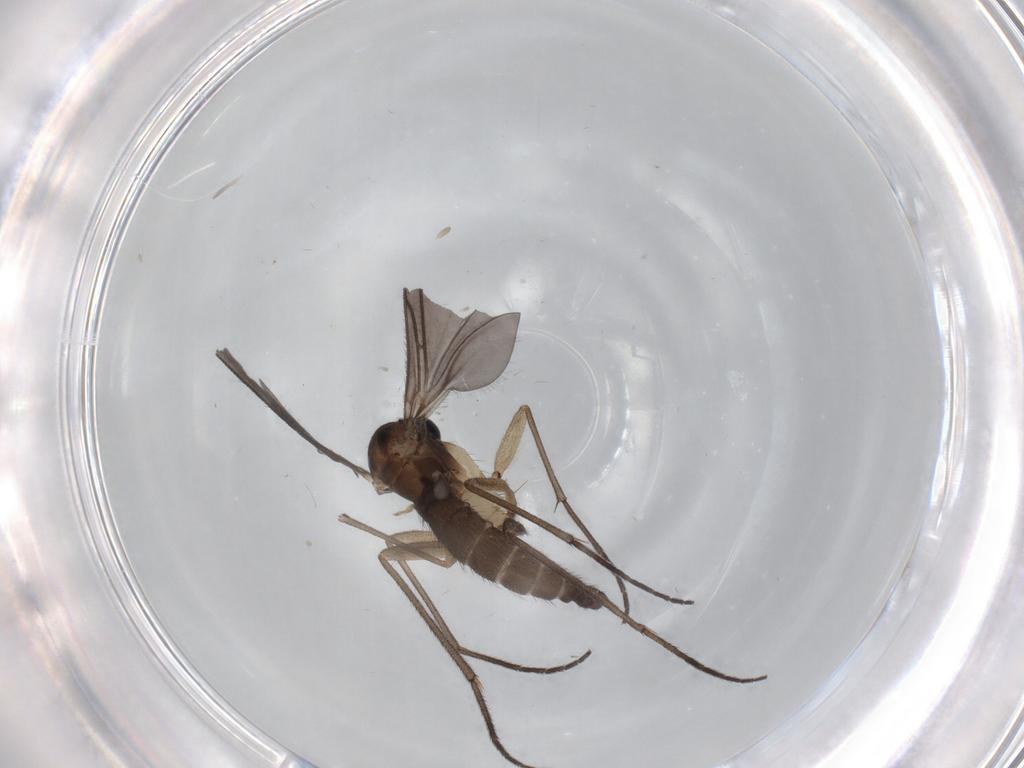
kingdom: Animalia
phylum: Arthropoda
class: Insecta
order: Diptera
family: Sciaridae
